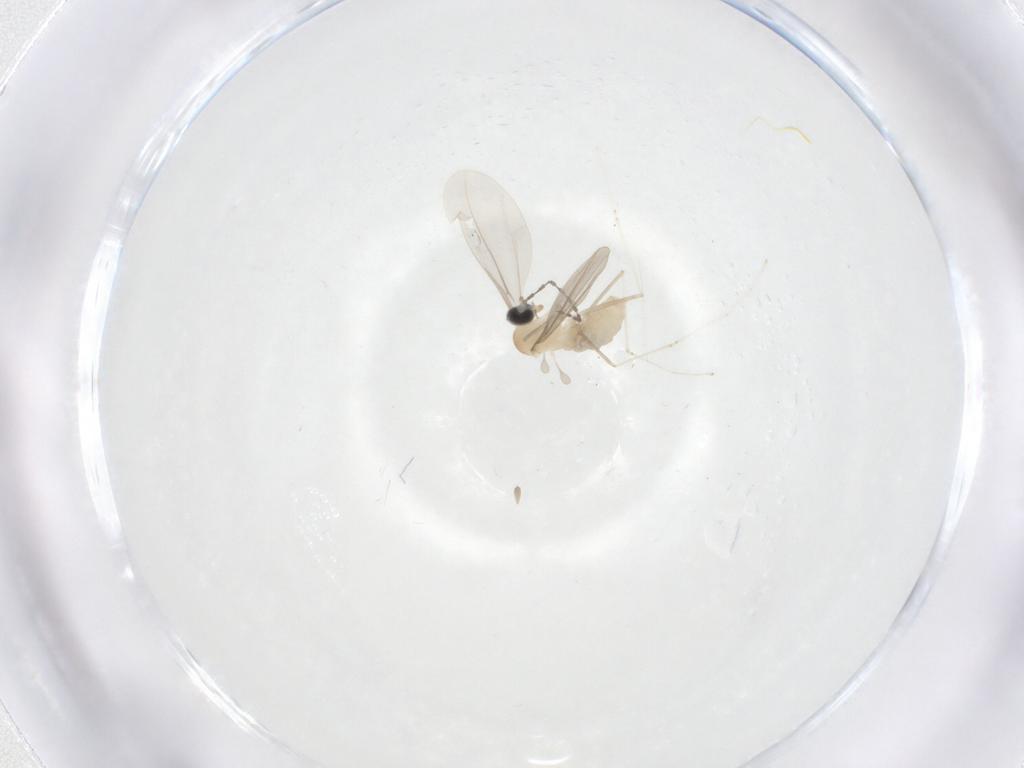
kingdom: Animalia
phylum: Arthropoda
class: Insecta
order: Diptera
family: Cecidomyiidae
